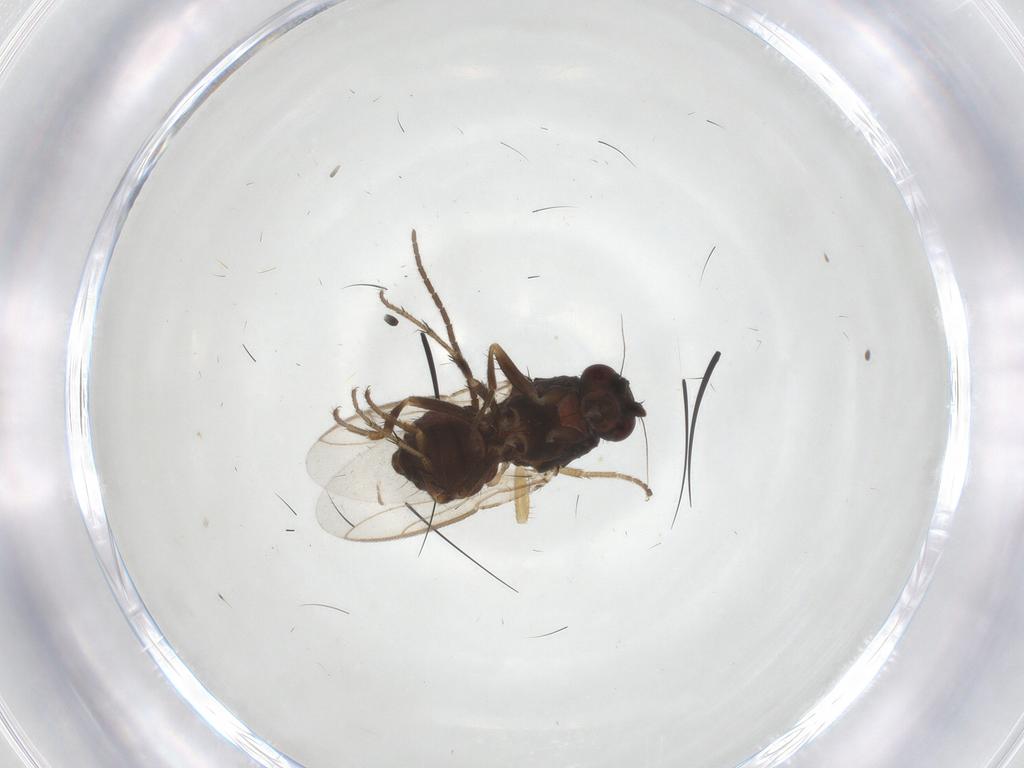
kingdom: Animalia
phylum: Arthropoda
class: Insecta
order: Diptera
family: Sphaeroceridae
